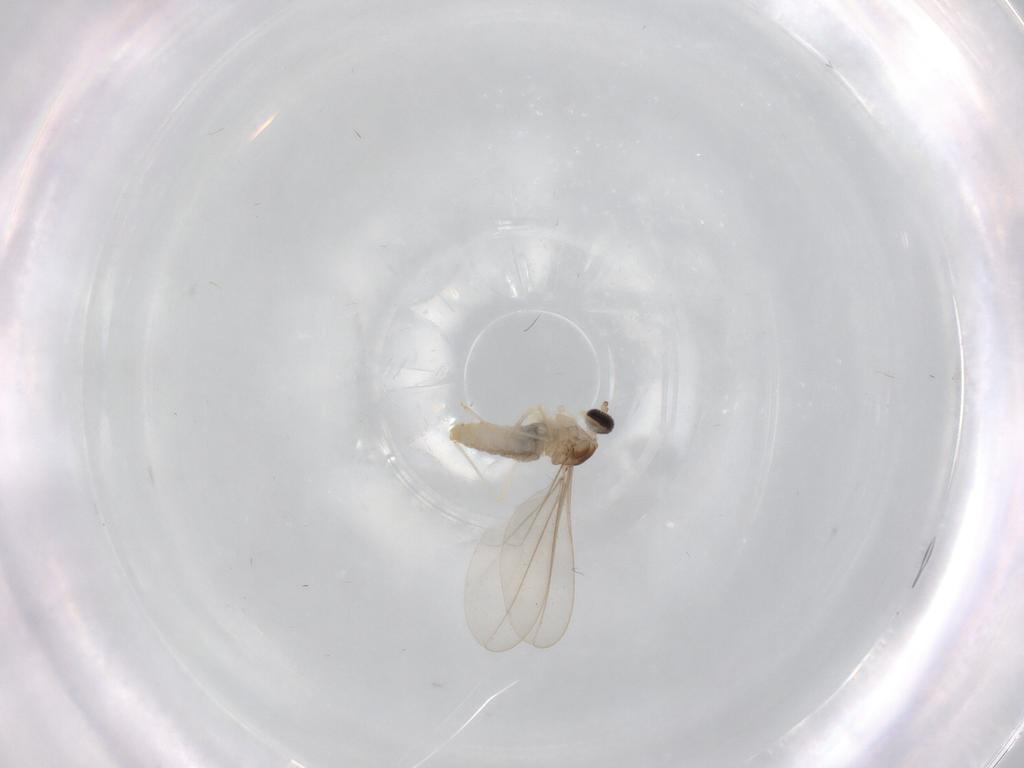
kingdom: Animalia
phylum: Arthropoda
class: Insecta
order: Diptera
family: Cecidomyiidae
